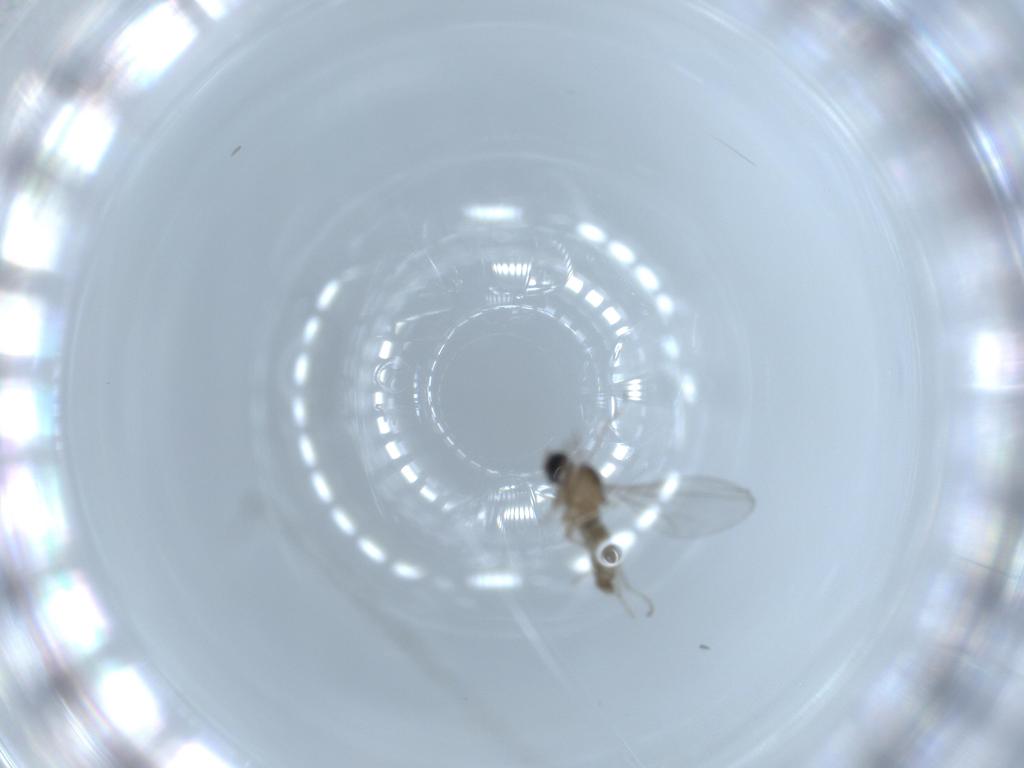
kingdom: Animalia
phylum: Arthropoda
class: Insecta
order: Diptera
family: Cecidomyiidae
